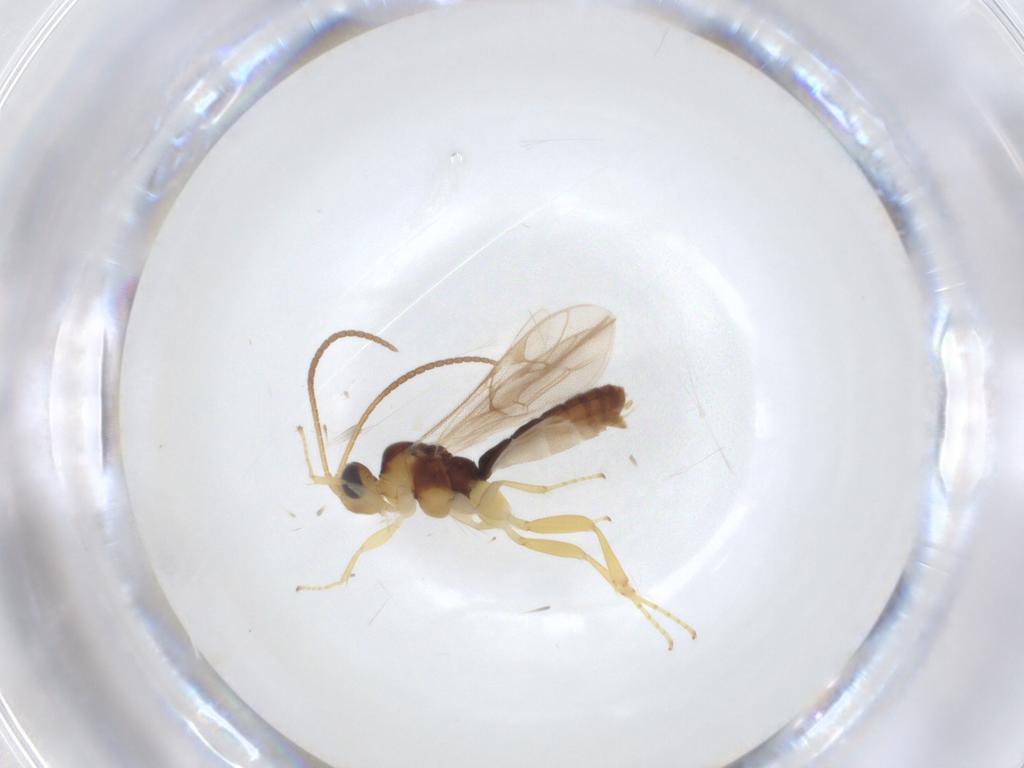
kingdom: Animalia
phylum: Arthropoda
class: Insecta
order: Hymenoptera
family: Ichneumonidae
